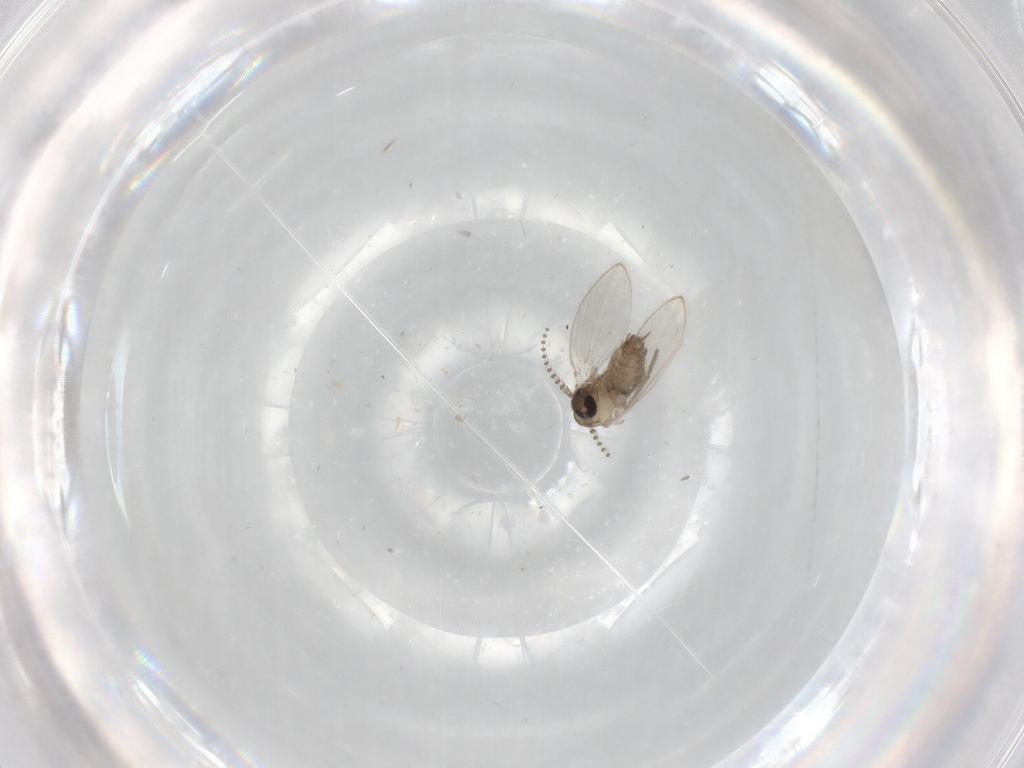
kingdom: Animalia
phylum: Arthropoda
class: Insecta
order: Diptera
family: Psychodidae
